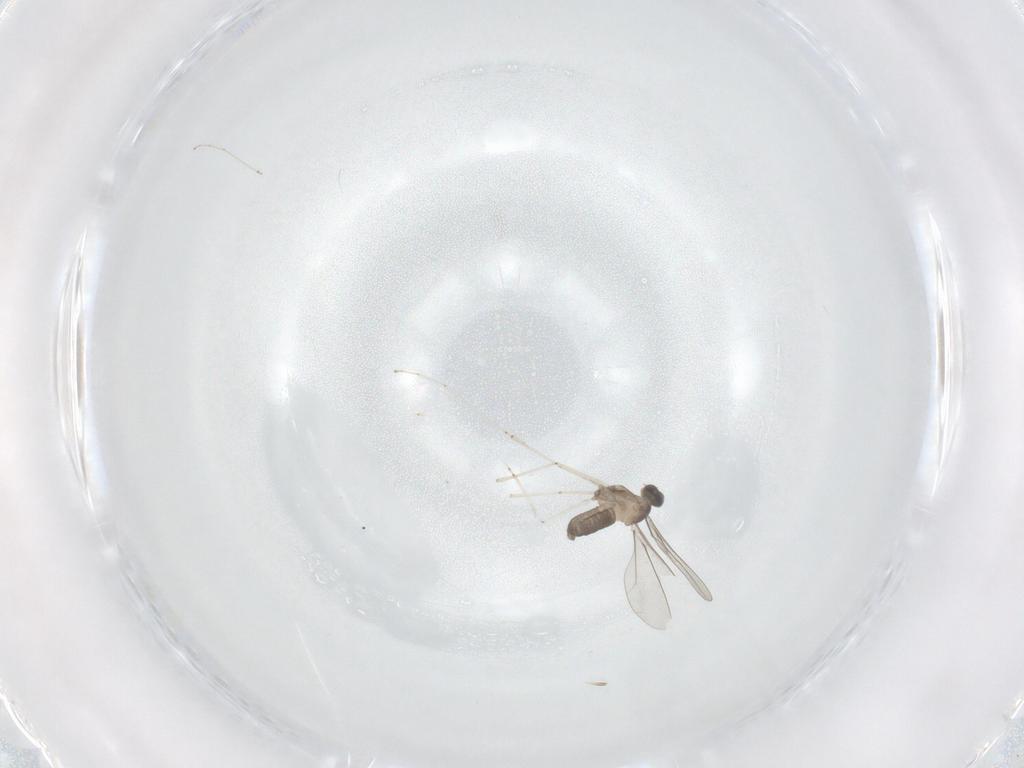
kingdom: Animalia
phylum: Arthropoda
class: Insecta
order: Diptera
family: Cecidomyiidae
